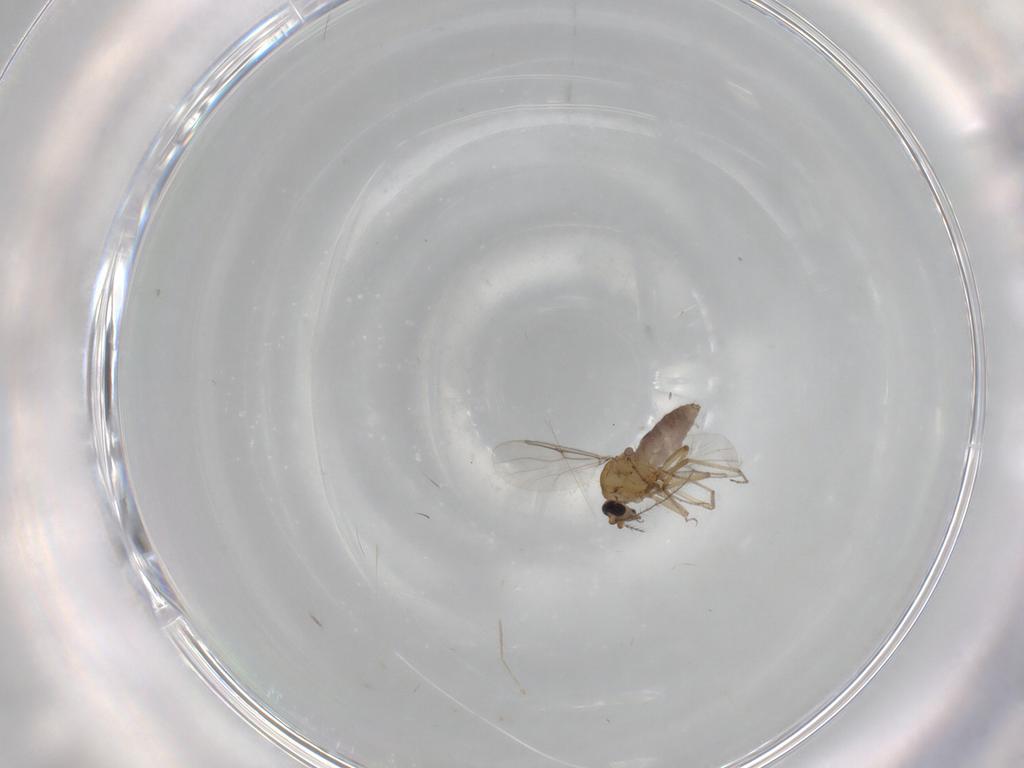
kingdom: Animalia
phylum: Arthropoda
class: Insecta
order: Diptera
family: Cecidomyiidae
